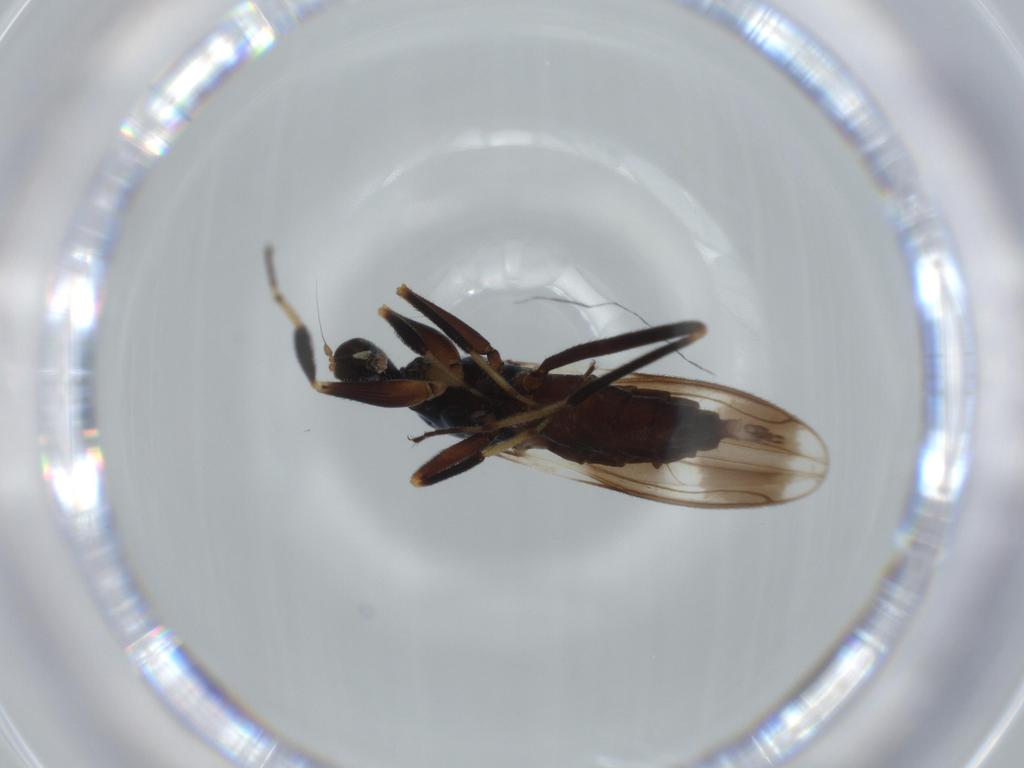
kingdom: Animalia
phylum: Arthropoda
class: Insecta
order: Diptera
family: Hybotidae
